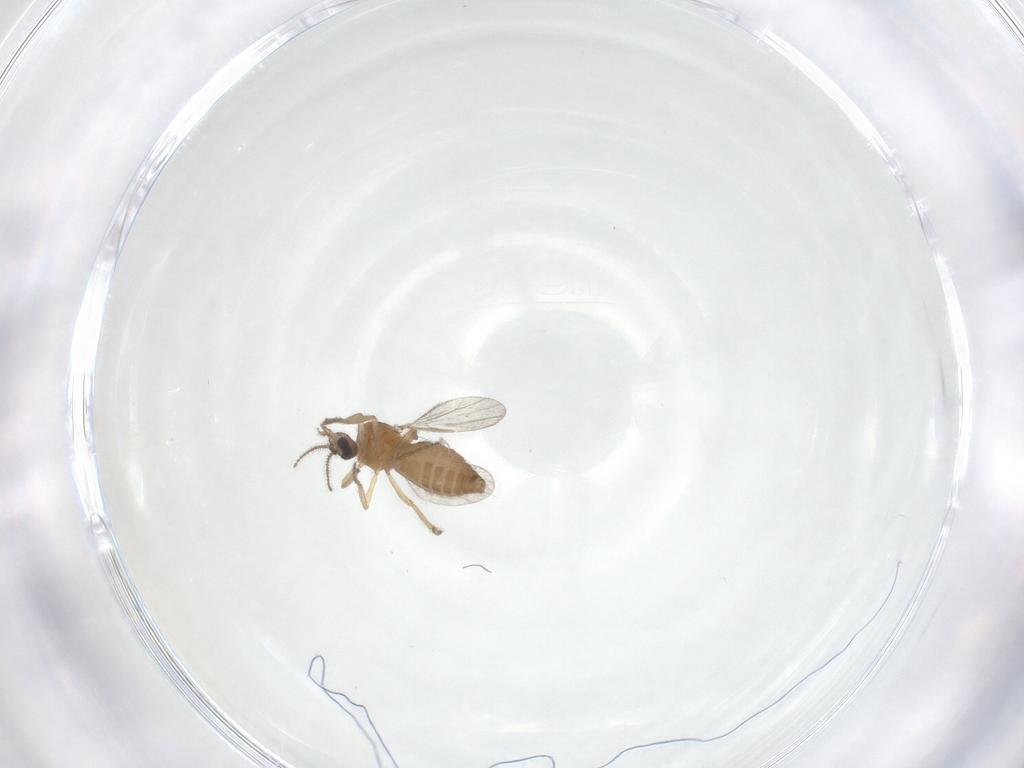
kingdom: Animalia
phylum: Arthropoda
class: Insecta
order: Diptera
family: Ceratopogonidae
